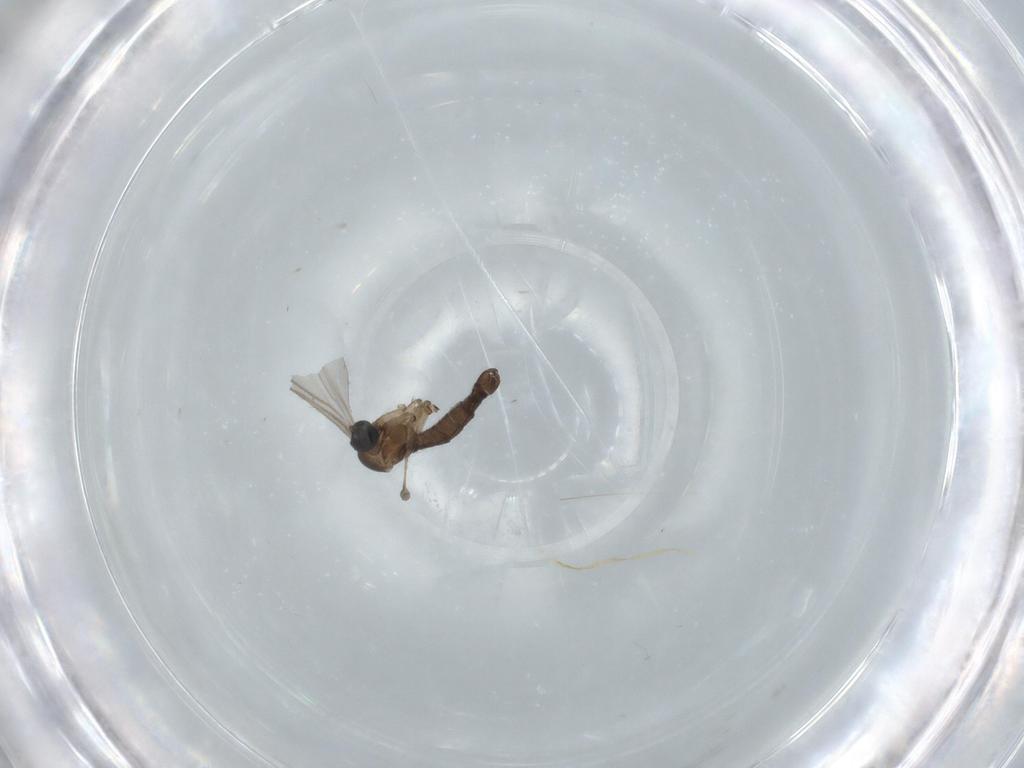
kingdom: Animalia
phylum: Arthropoda
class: Insecta
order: Diptera
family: Sciaridae
